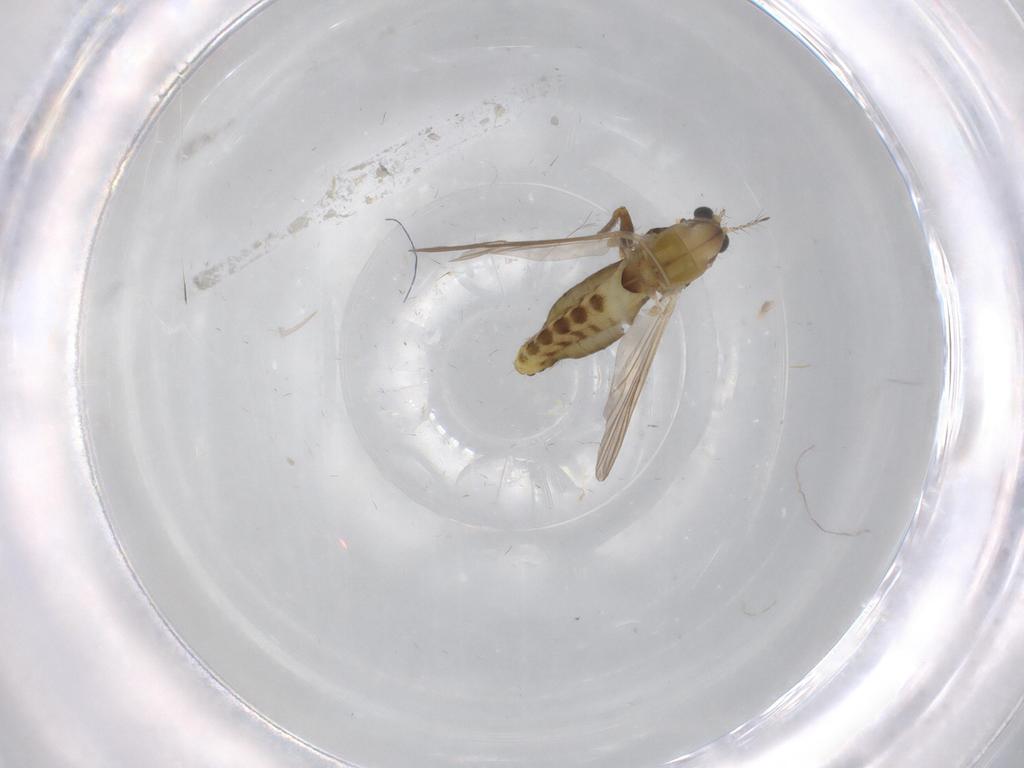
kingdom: Animalia
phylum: Arthropoda
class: Insecta
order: Diptera
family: Chironomidae
